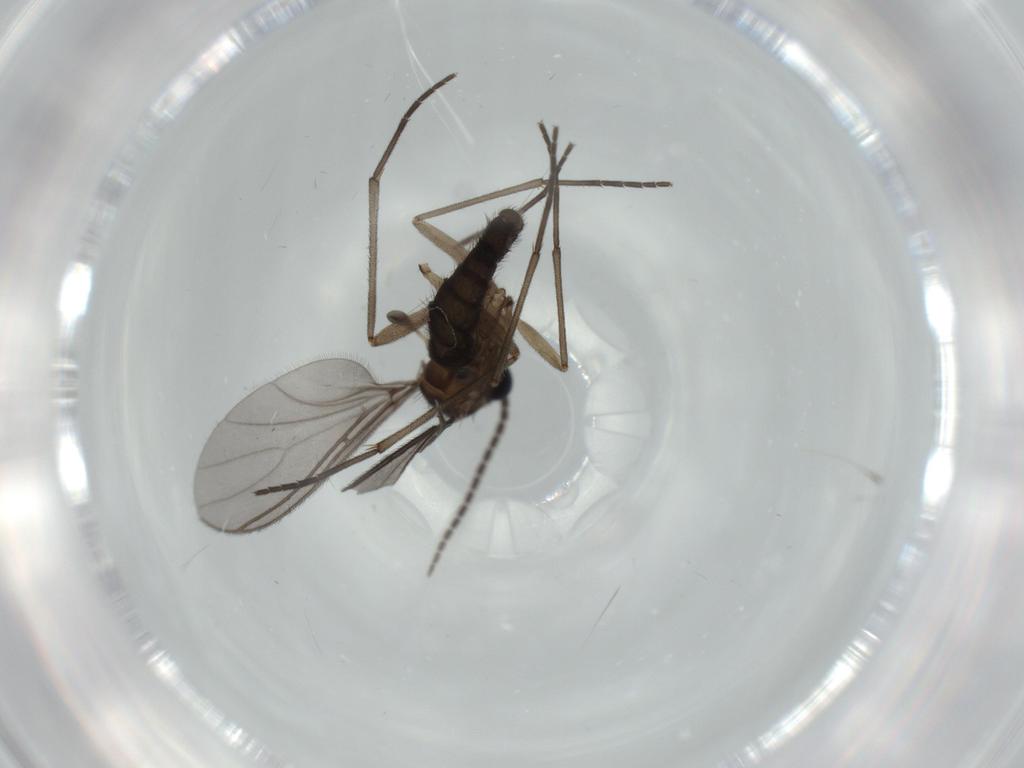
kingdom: Animalia
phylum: Arthropoda
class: Insecta
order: Diptera
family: Sciaridae
